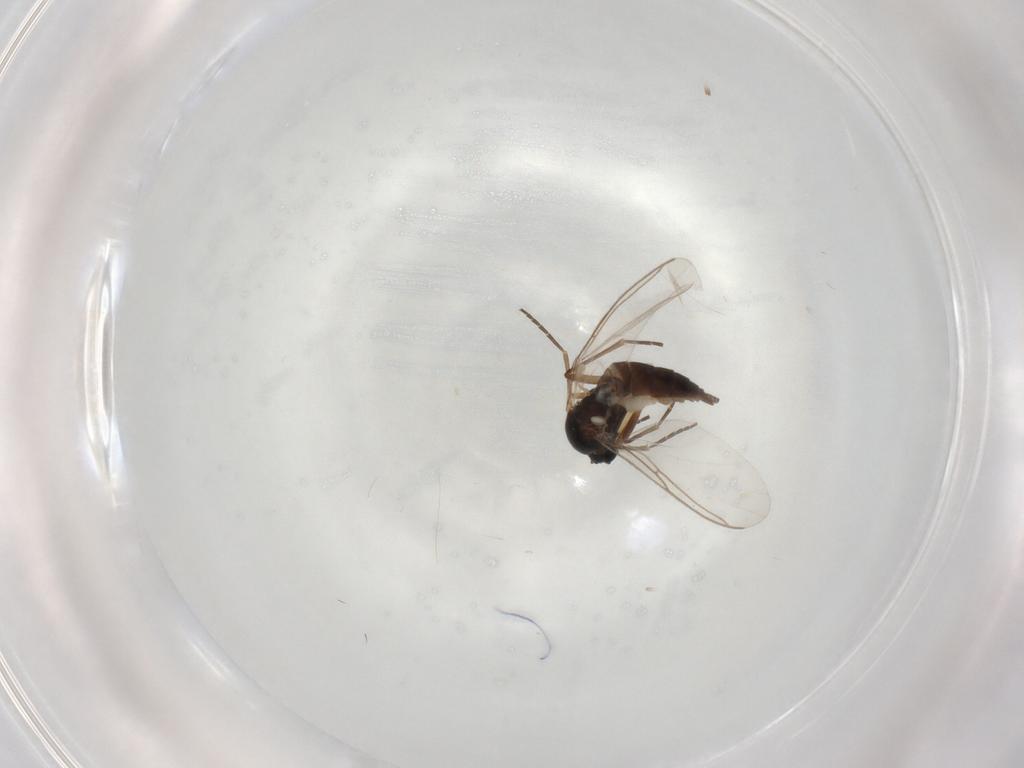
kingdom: Animalia
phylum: Arthropoda
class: Insecta
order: Diptera
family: Sciaridae
